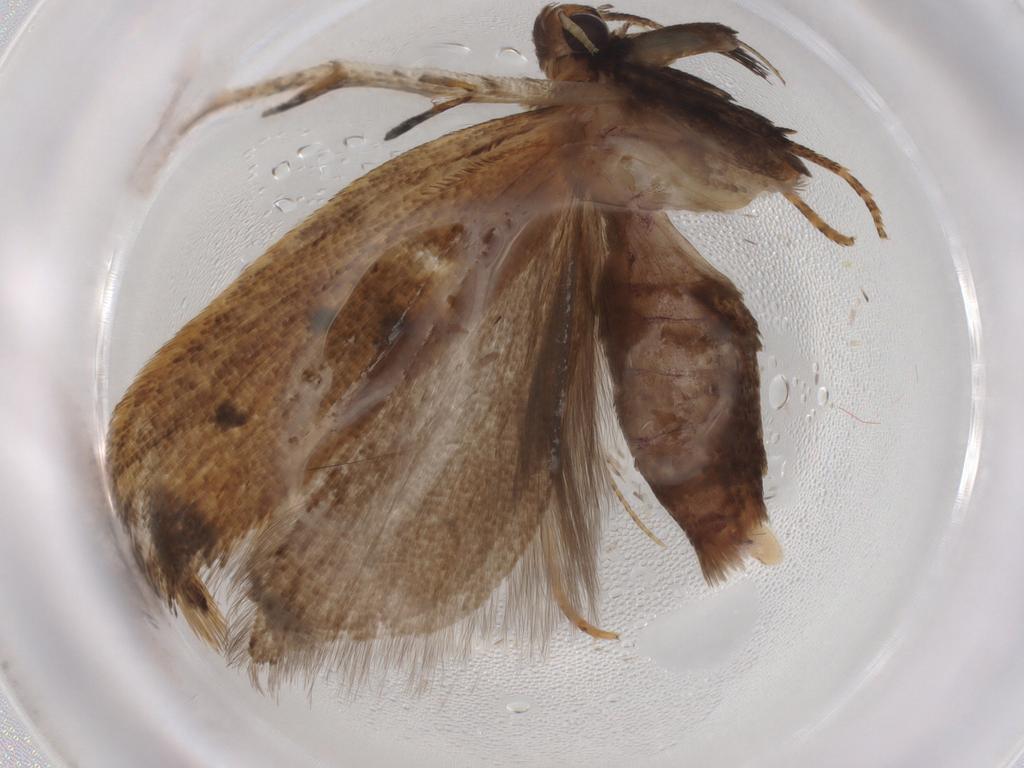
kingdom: Animalia
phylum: Arthropoda
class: Insecta
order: Lepidoptera
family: Gelechiidae
